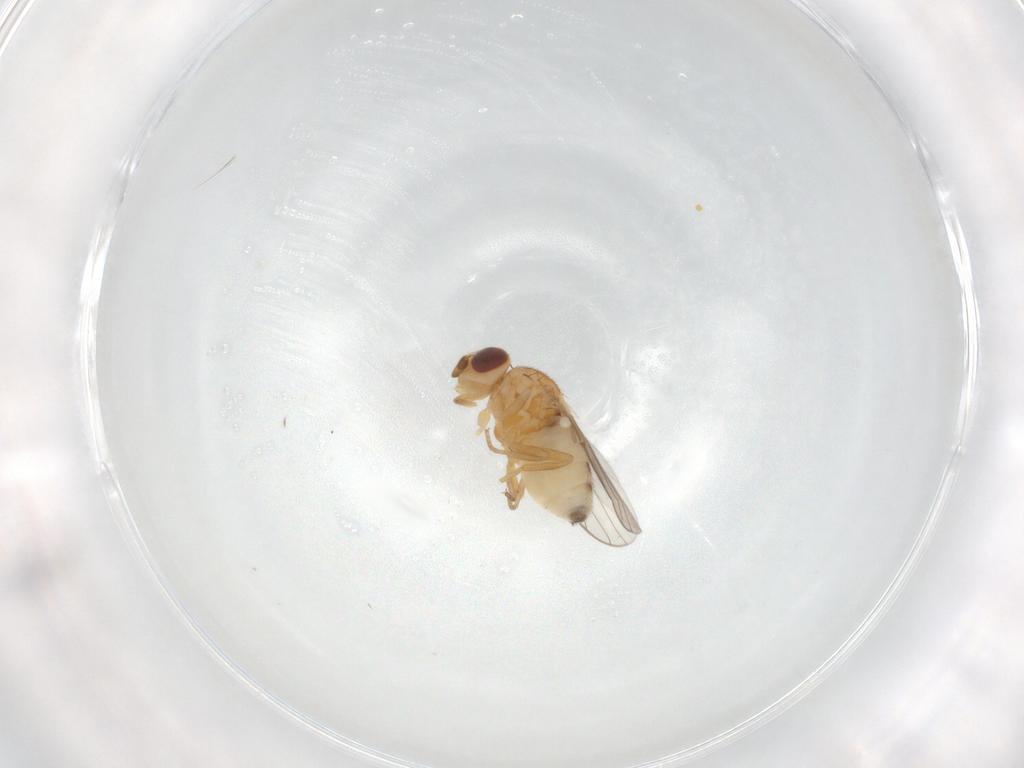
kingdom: Animalia
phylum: Arthropoda
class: Insecta
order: Diptera
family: Chloropidae
